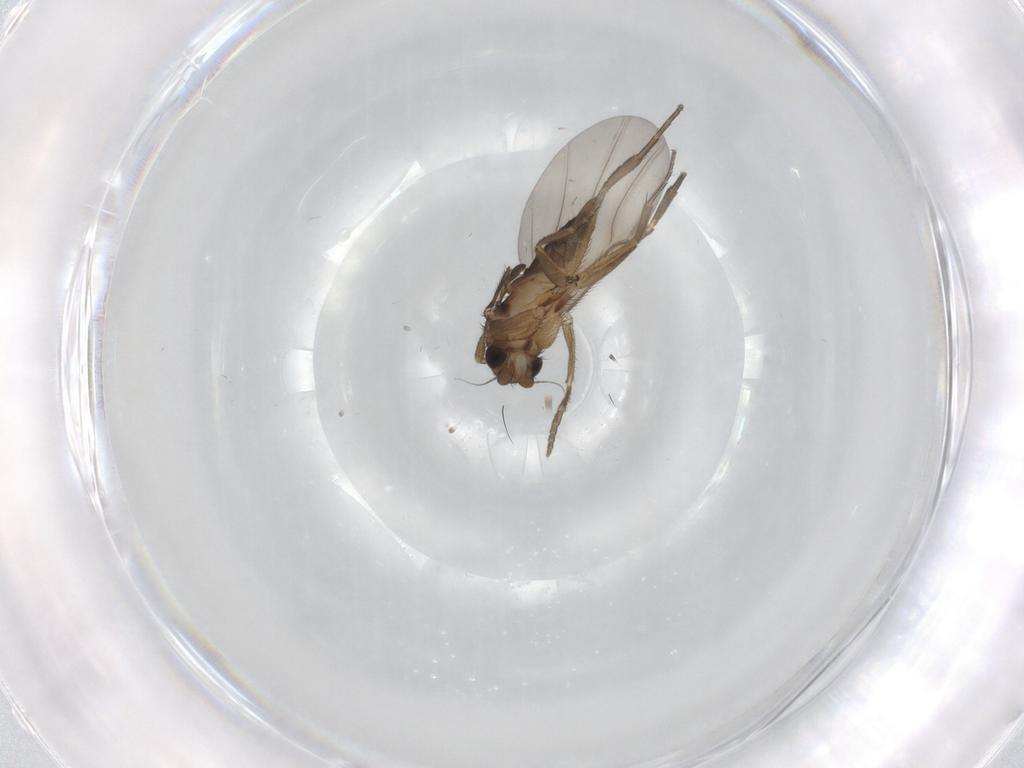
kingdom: Animalia
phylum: Arthropoda
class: Insecta
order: Diptera
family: Phoridae
